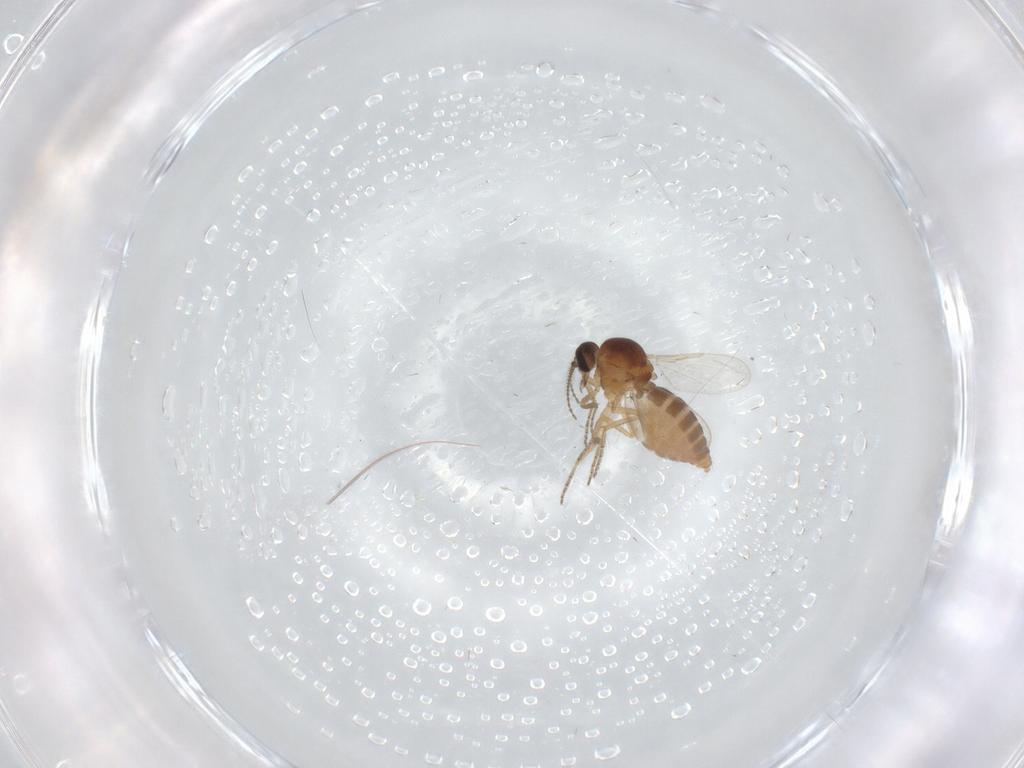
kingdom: Animalia
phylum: Arthropoda
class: Insecta
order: Diptera
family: Ceratopogonidae
